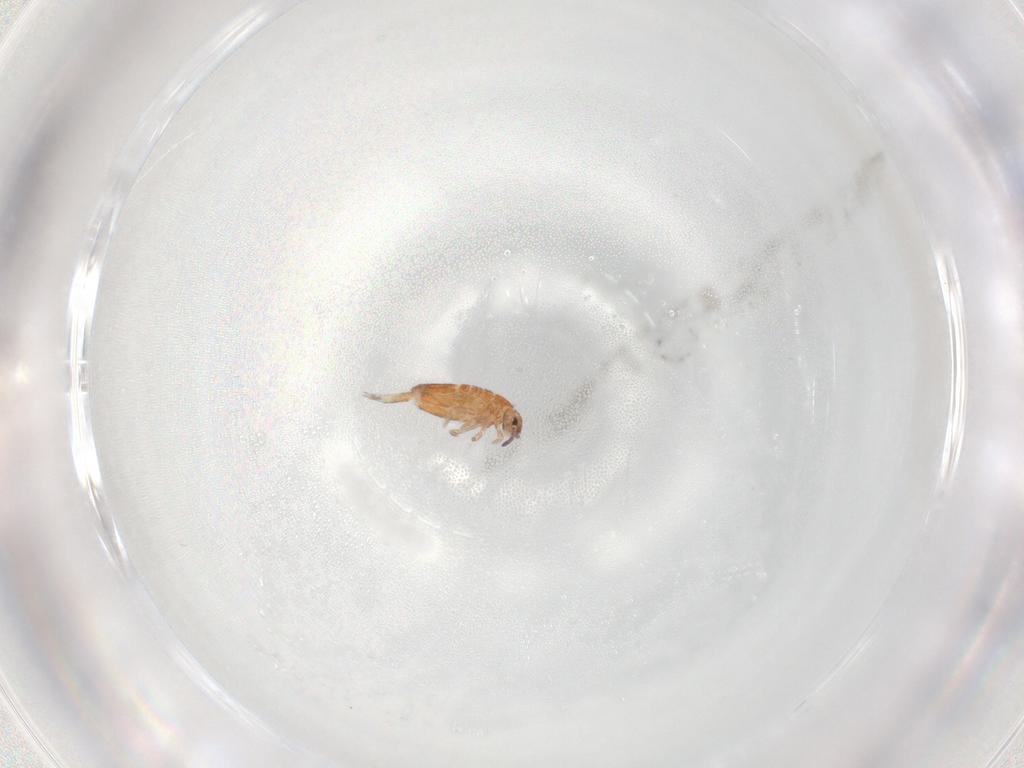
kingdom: Animalia
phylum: Arthropoda
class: Collembola
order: Entomobryomorpha
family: Entomobryidae
